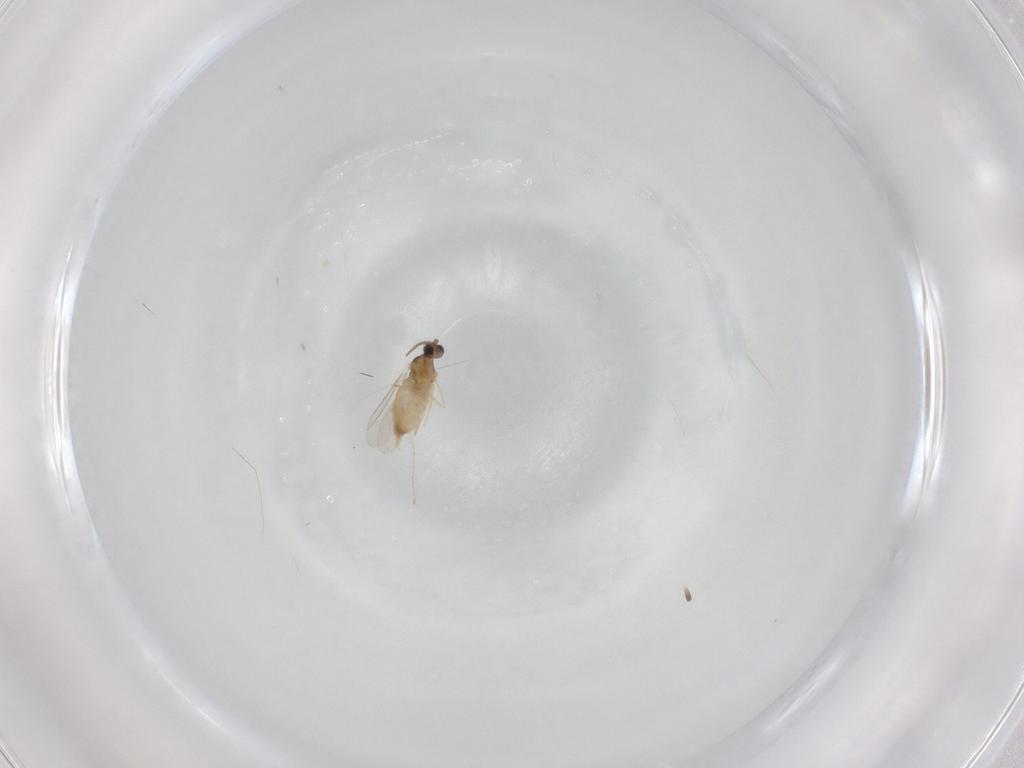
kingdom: Animalia
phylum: Arthropoda
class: Insecta
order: Diptera
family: Cecidomyiidae
